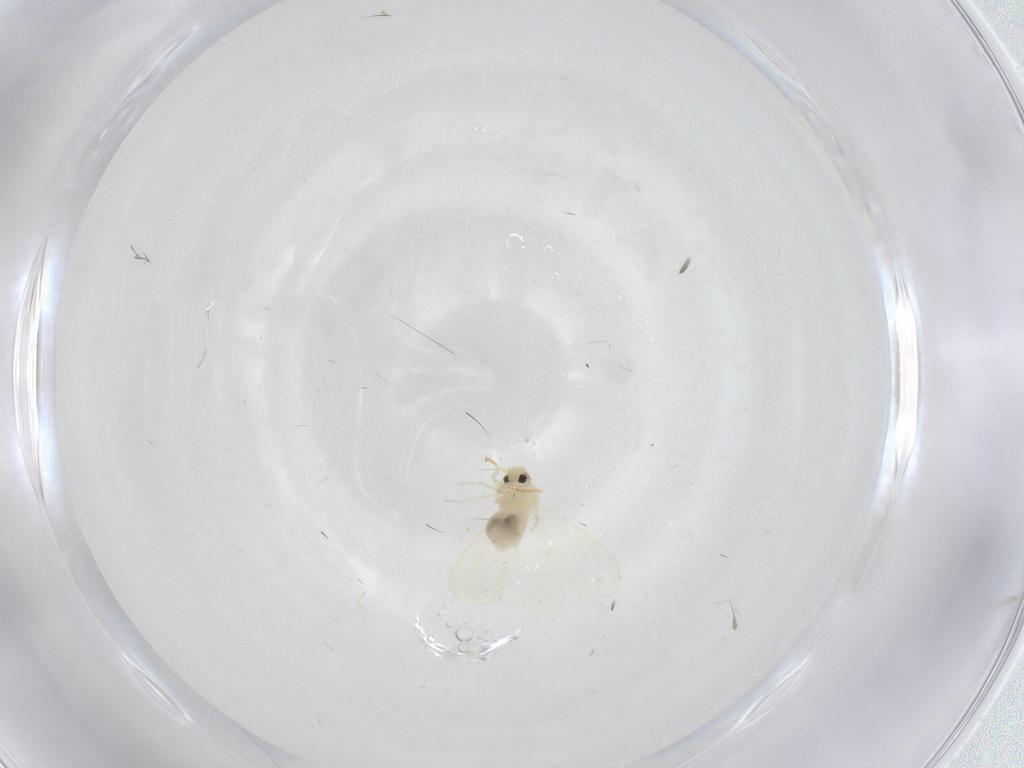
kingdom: Animalia
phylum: Arthropoda
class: Insecta
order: Hemiptera
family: Aleyrodidae
